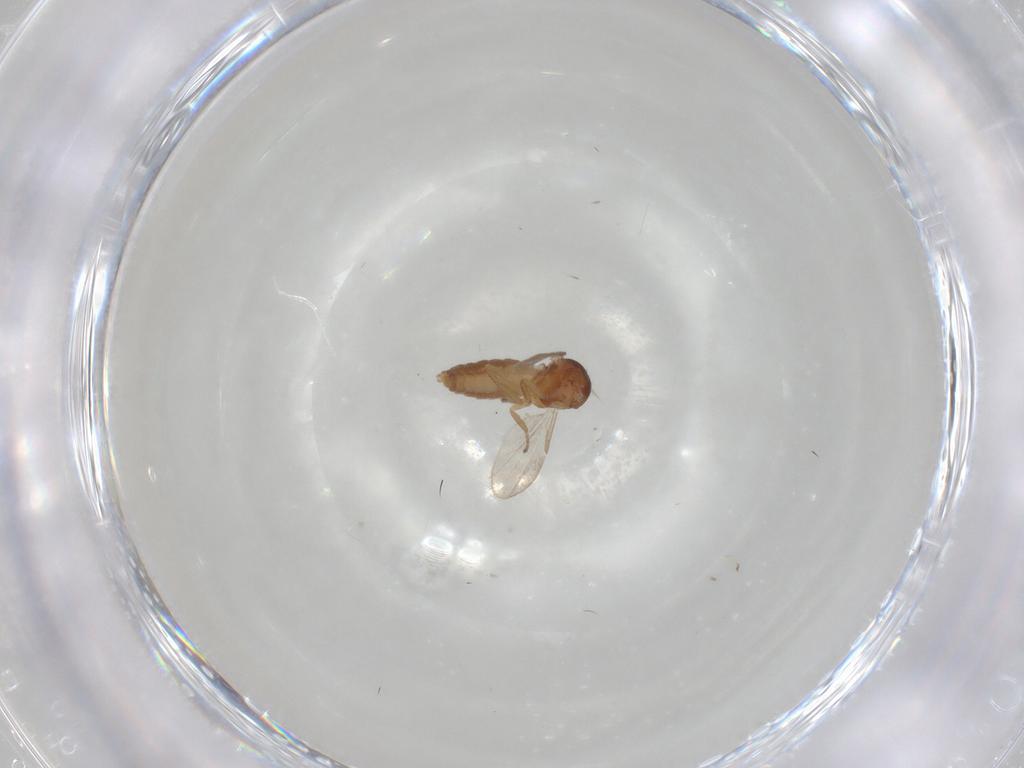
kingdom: Animalia
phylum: Arthropoda
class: Insecta
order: Diptera
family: Ceratopogonidae
